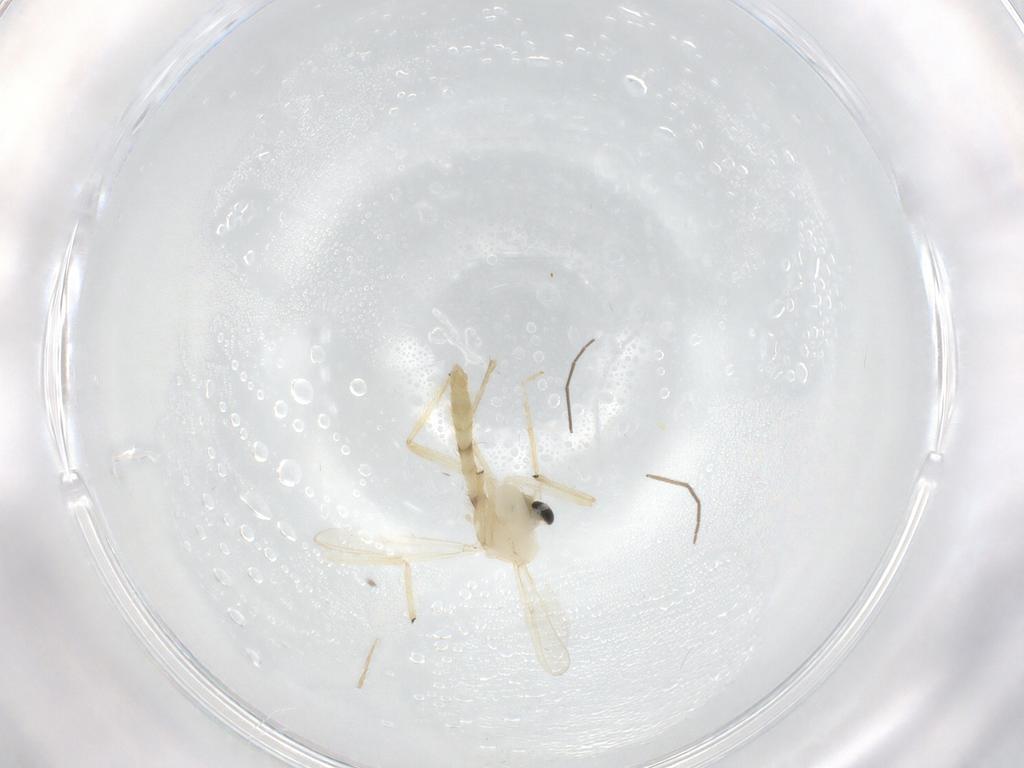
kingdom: Animalia
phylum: Arthropoda
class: Insecta
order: Diptera
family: Chironomidae
